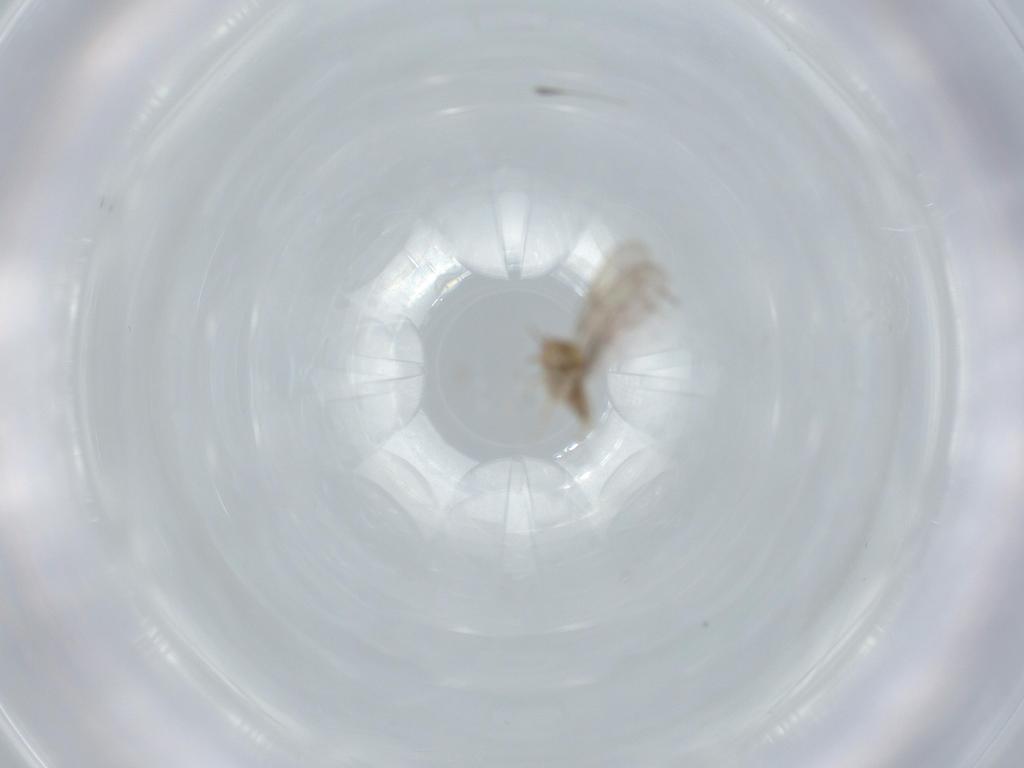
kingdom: Animalia
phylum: Arthropoda
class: Insecta
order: Psocodea
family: Ectopsocidae
